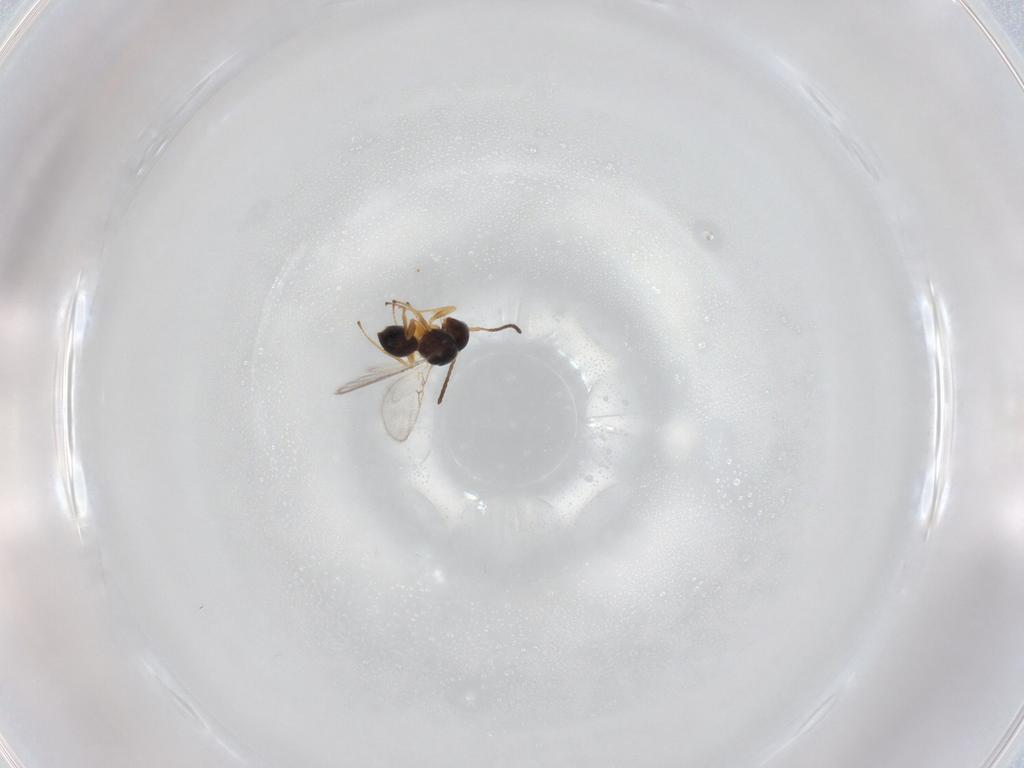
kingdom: Animalia
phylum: Arthropoda
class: Insecta
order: Hymenoptera
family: Figitidae
